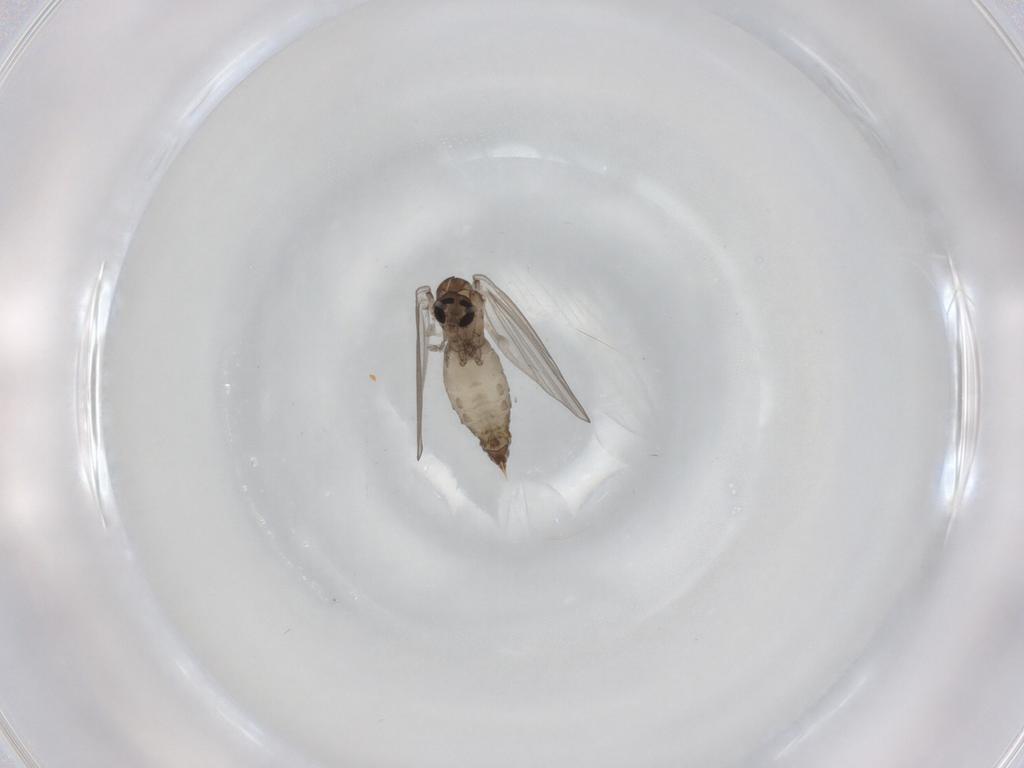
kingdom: Animalia
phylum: Arthropoda
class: Insecta
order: Diptera
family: Psychodidae
